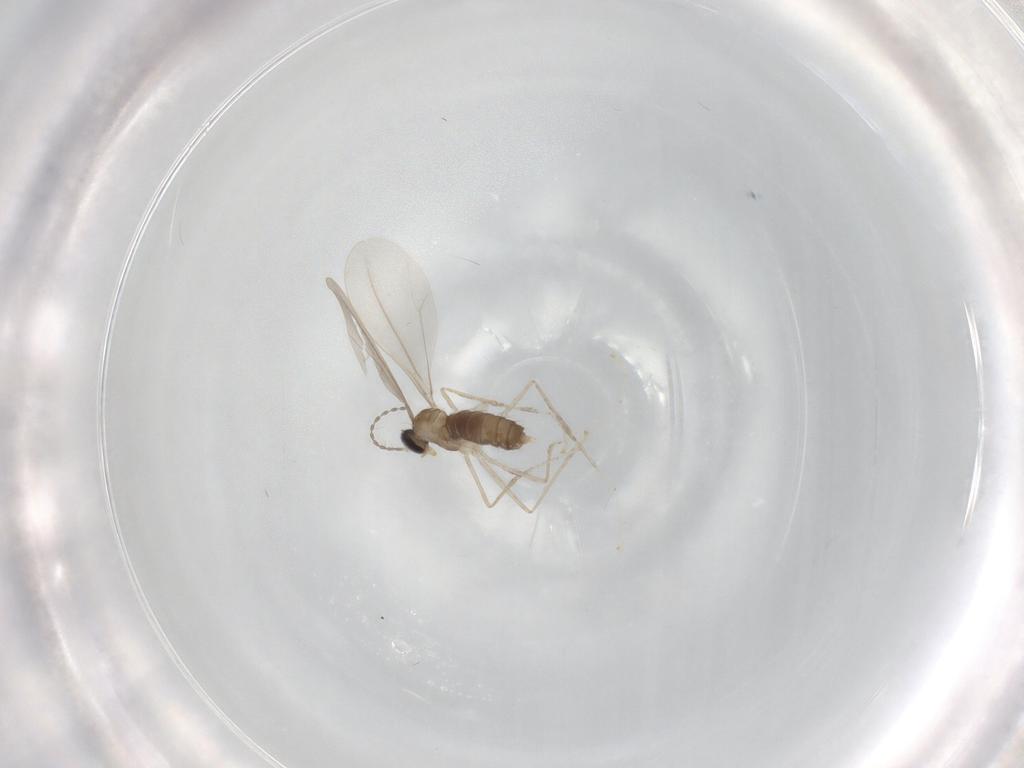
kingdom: Animalia
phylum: Arthropoda
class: Insecta
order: Diptera
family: Cecidomyiidae
